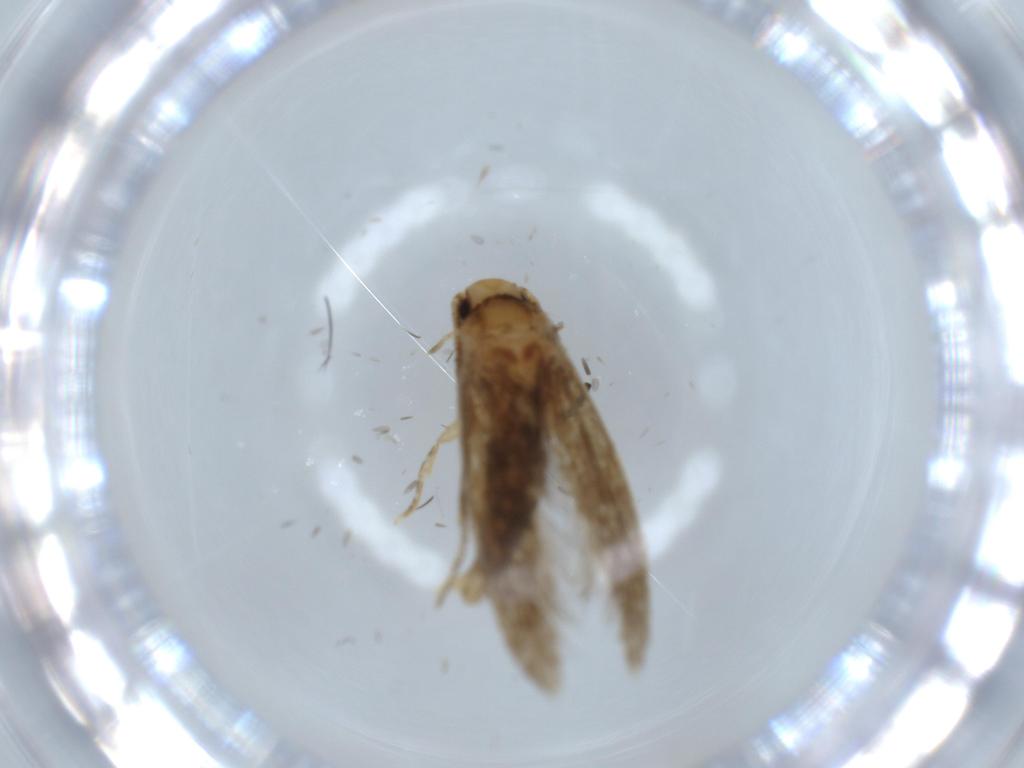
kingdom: Animalia
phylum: Arthropoda
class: Insecta
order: Lepidoptera
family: Tineidae
